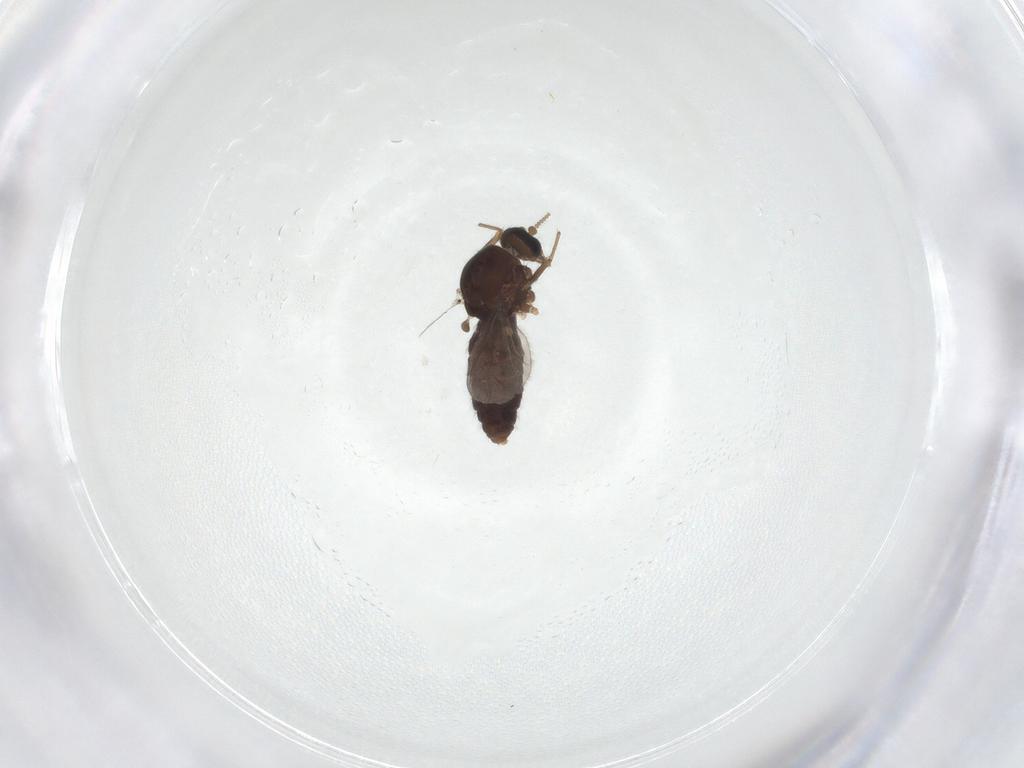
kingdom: Animalia
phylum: Arthropoda
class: Insecta
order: Diptera
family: Ceratopogonidae
